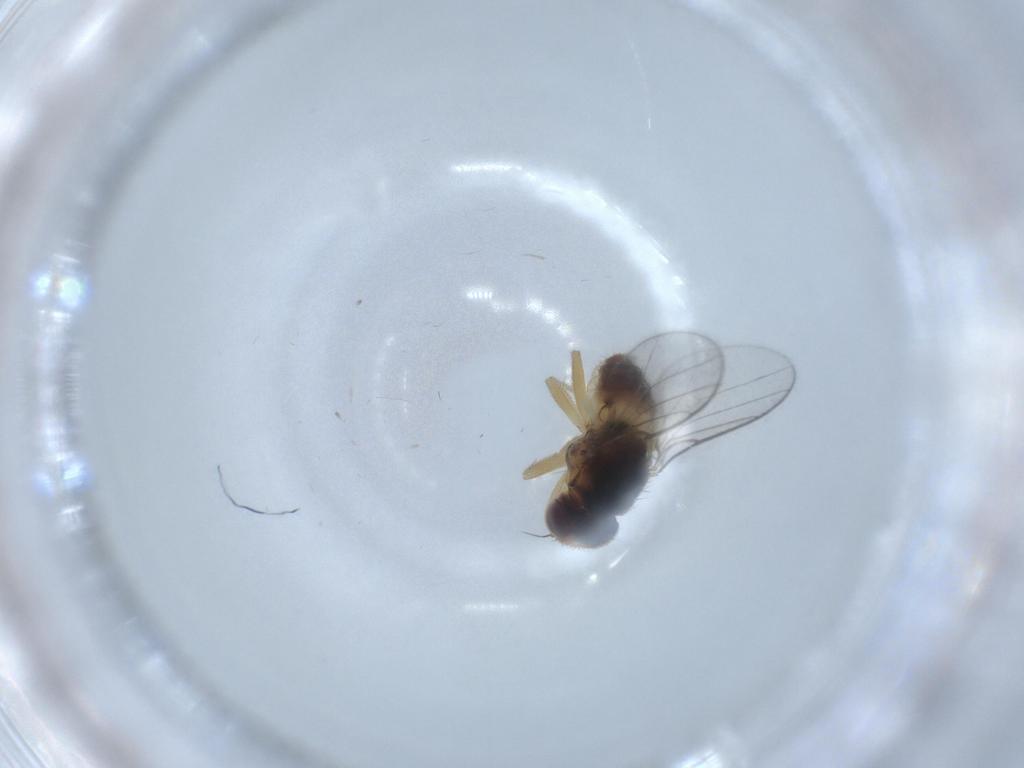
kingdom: Animalia
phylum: Arthropoda
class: Insecta
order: Diptera
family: Chloropidae
